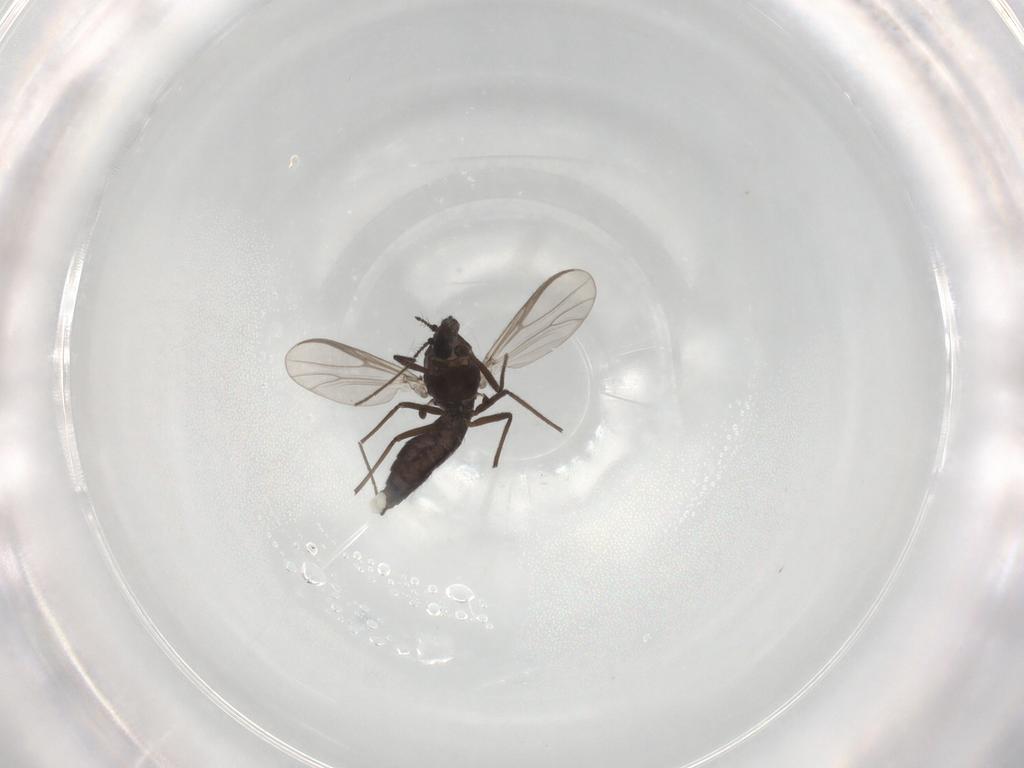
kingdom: Animalia
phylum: Arthropoda
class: Insecta
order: Diptera
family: Chironomidae
